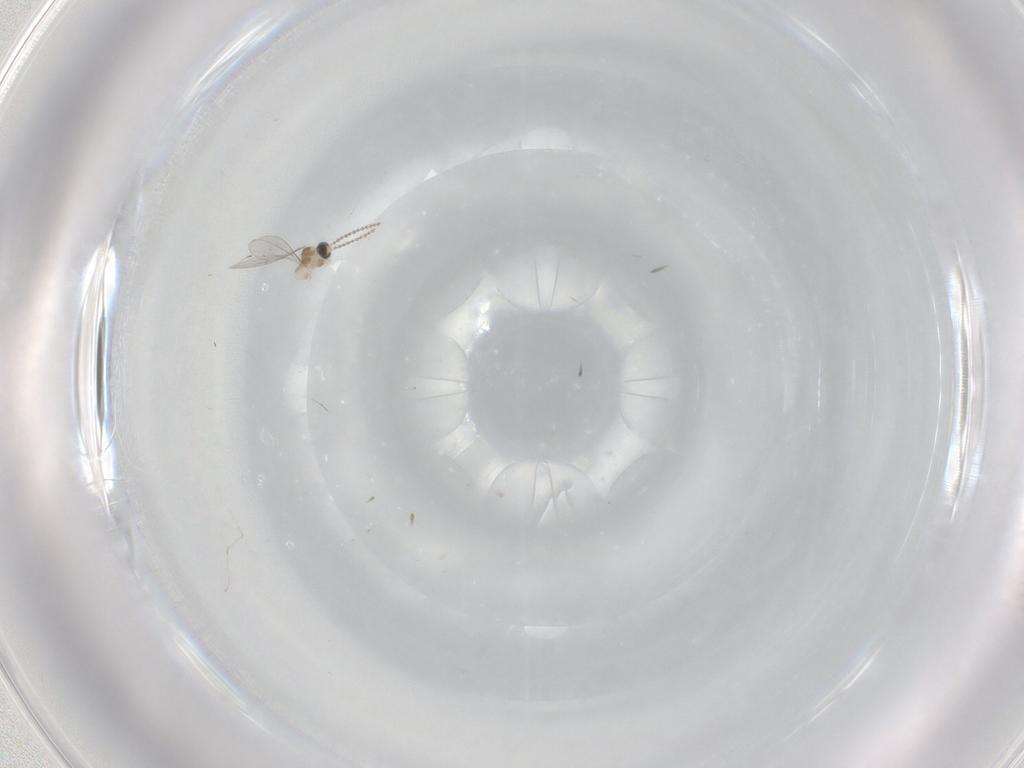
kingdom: Animalia
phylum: Arthropoda
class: Insecta
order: Diptera
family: Cecidomyiidae
